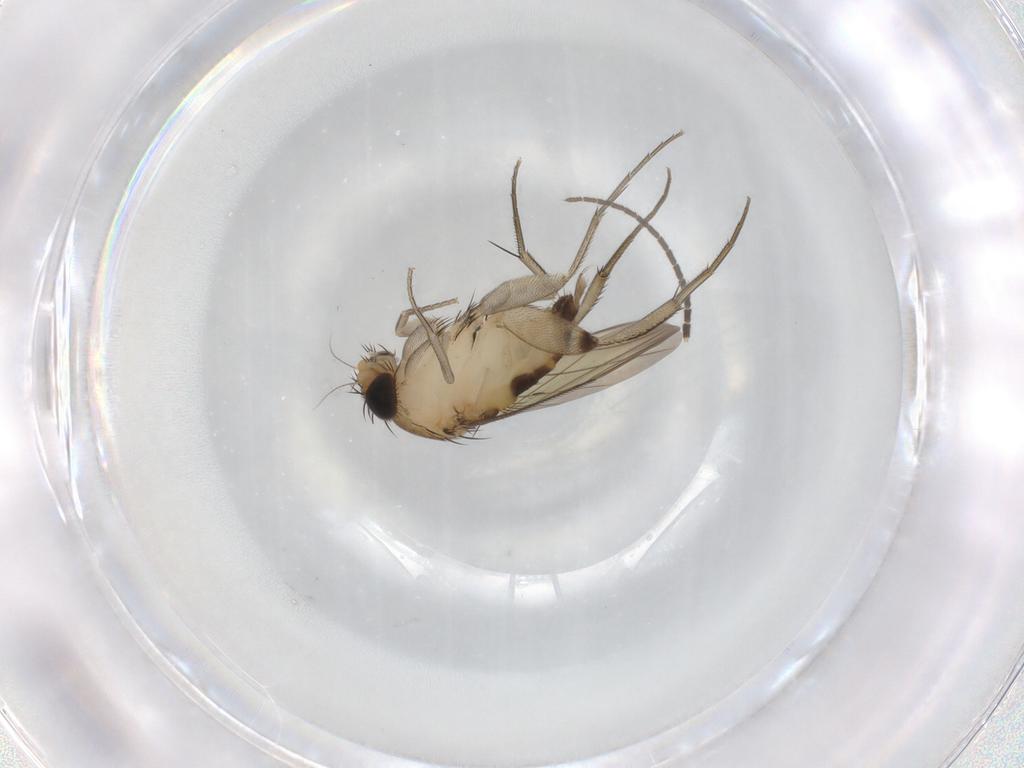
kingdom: Animalia
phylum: Arthropoda
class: Insecta
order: Diptera
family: Phoridae
